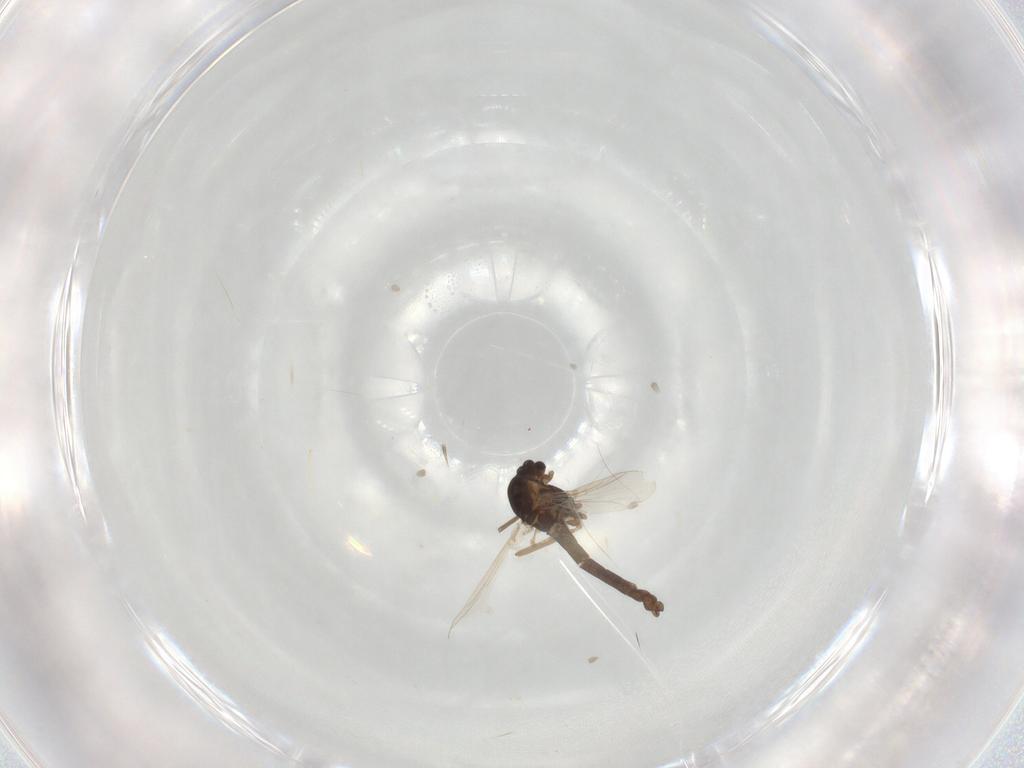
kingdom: Animalia
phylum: Arthropoda
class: Insecta
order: Diptera
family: Chironomidae
